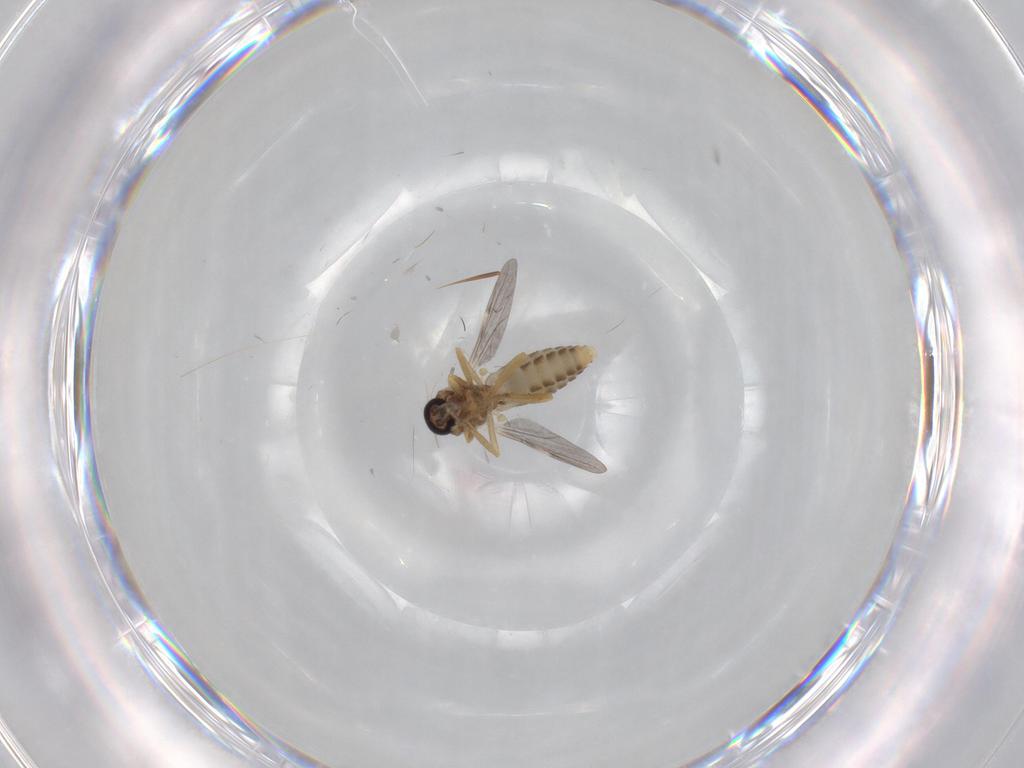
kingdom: Animalia
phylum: Arthropoda
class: Insecta
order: Diptera
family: Ceratopogonidae
